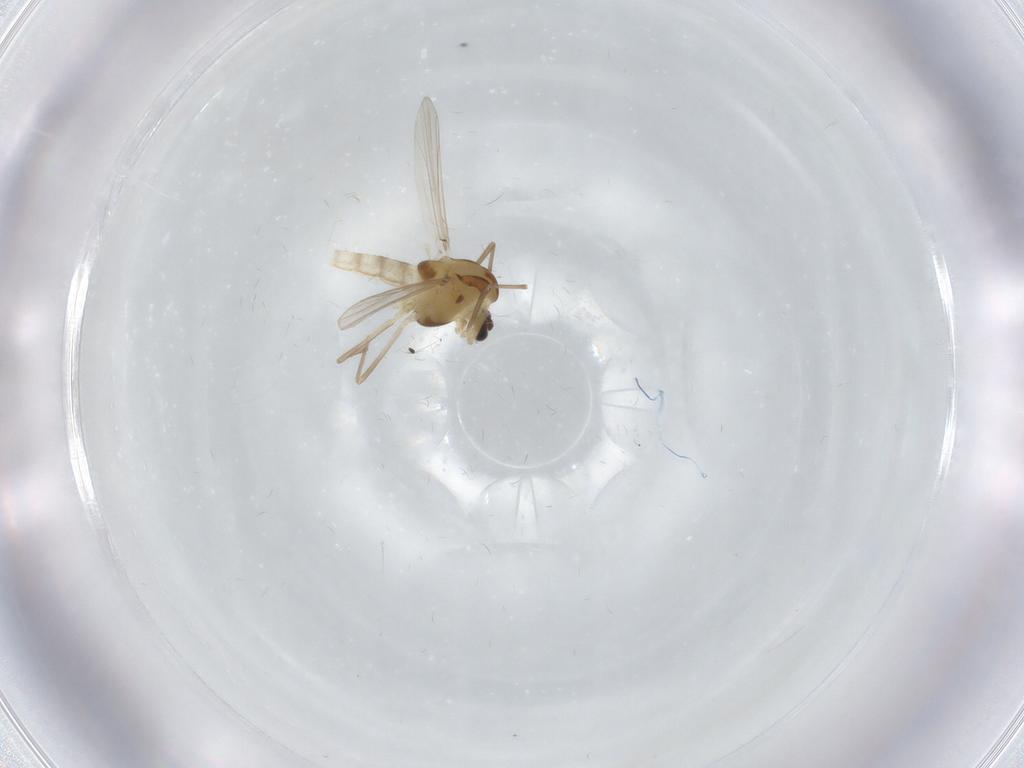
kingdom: Animalia
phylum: Arthropoda
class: Insecta
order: Diptera
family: Chironomidae
